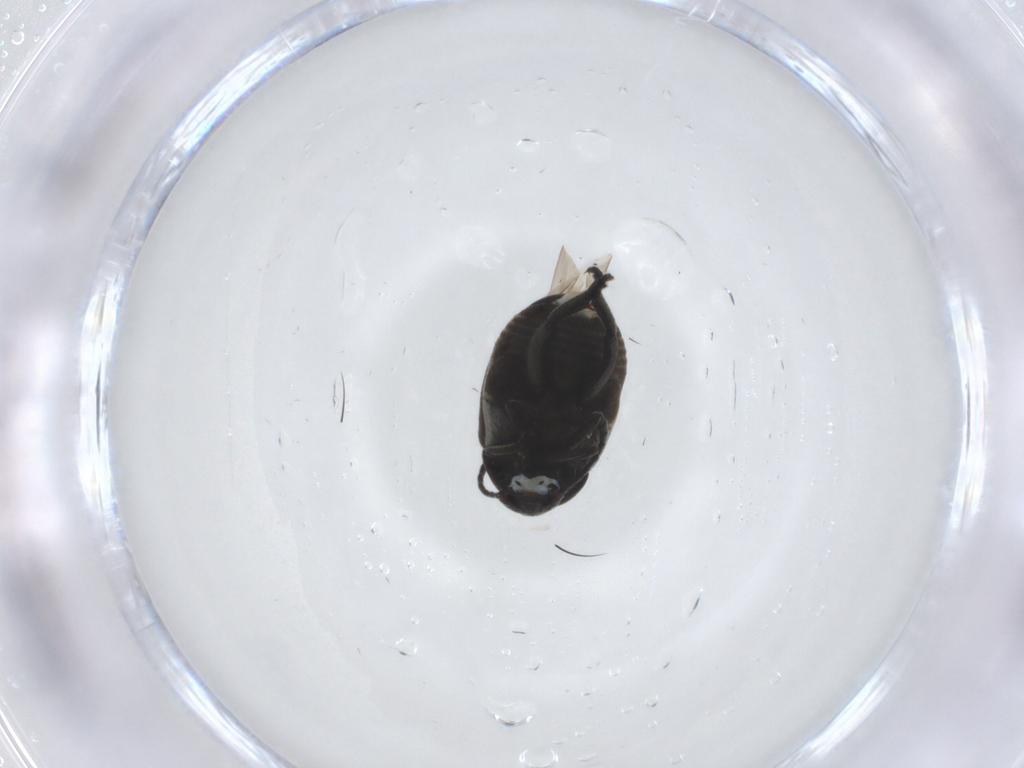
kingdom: Animalia
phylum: Arthropoda
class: Insecta
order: Coleoptera
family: Chrysomelidae
